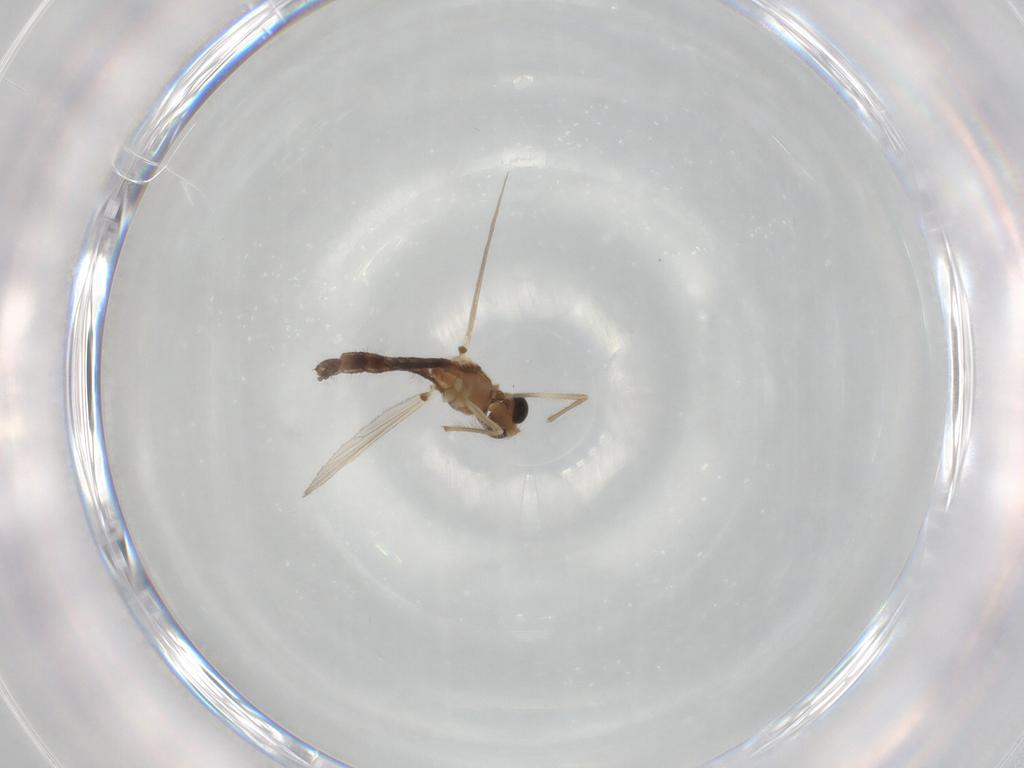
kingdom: Animalia
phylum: Arthropoda
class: Insecta
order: Diptera
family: Chironomidae
